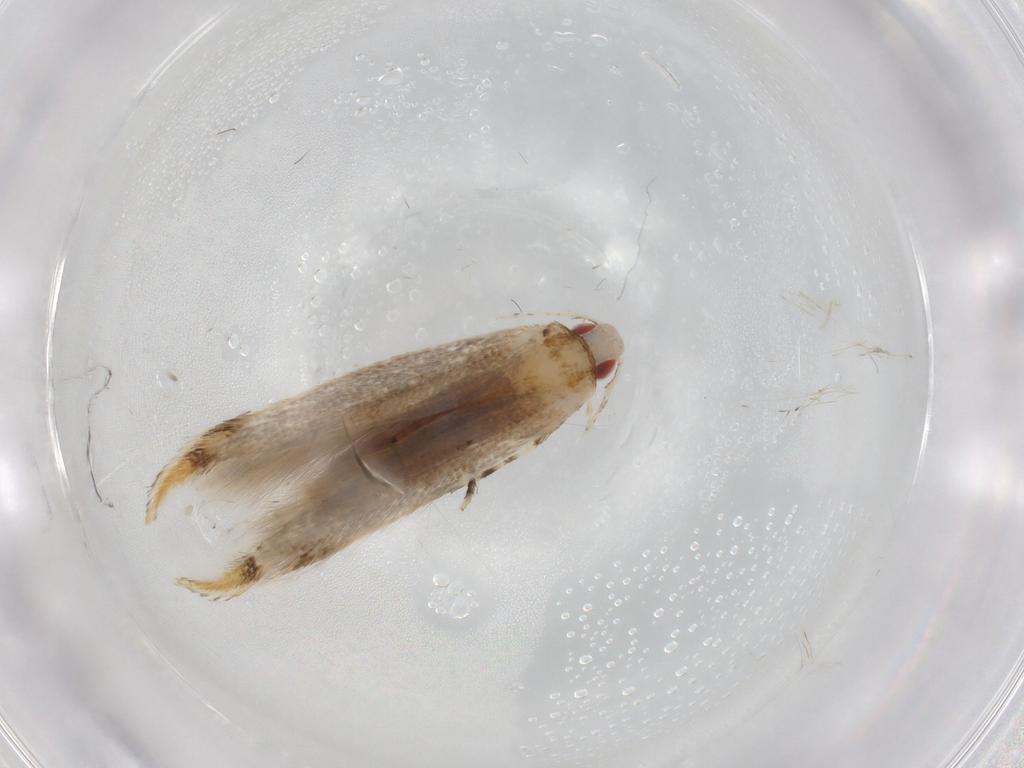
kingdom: Animalia
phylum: Arthropoda
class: Insecta
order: Lepidoptera
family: Cosmopterigidae
